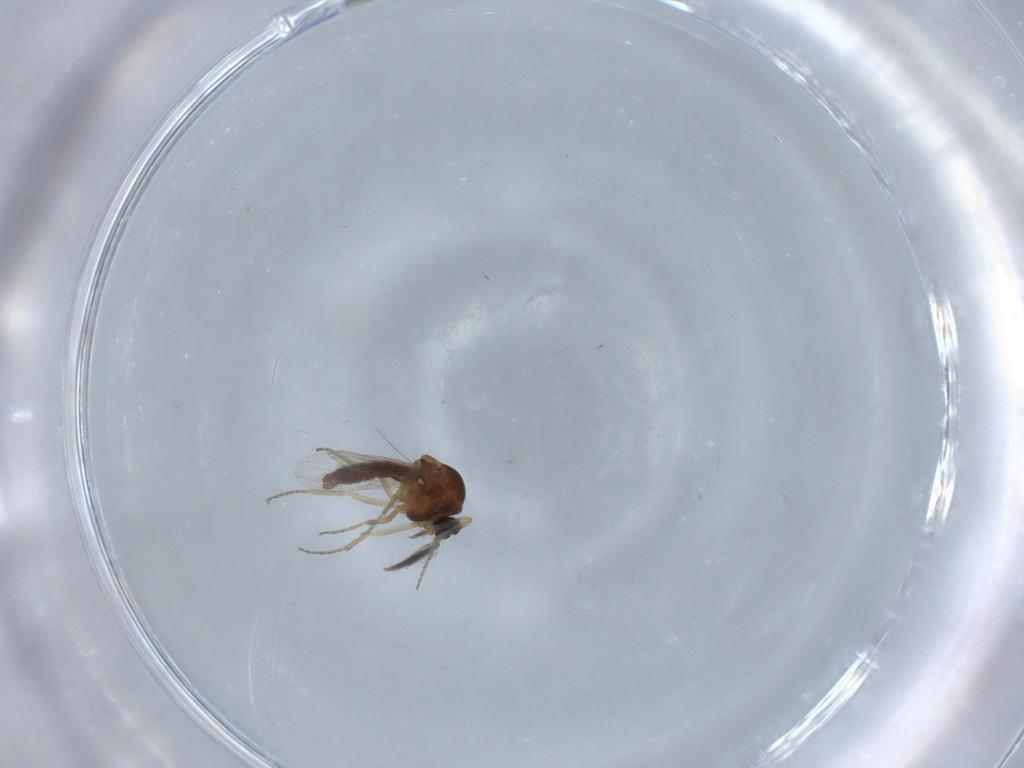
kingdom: Animalia
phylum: Arthropoda
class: Insecta
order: Diptera
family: Ceratopogonidae
